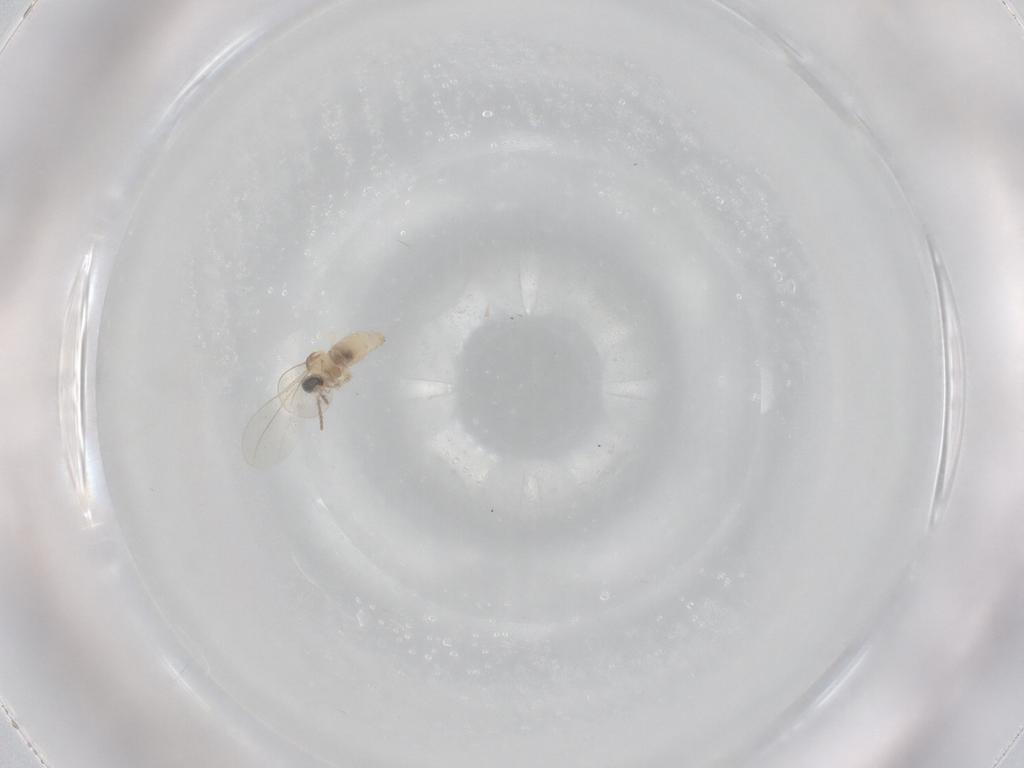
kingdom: Animalia
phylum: Arthropoda
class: Insecta
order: Diptera
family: Cecidomyiidae
